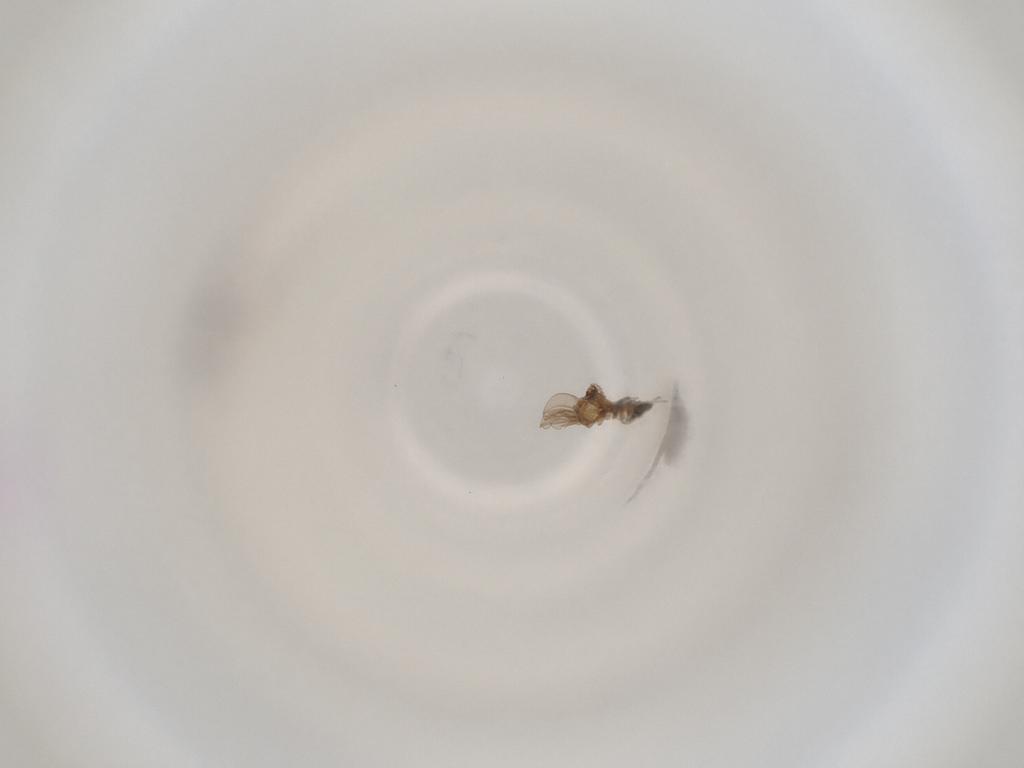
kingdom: Animalia
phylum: Arthropoda
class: Insecta
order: Diptera
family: Cecidomyiidae
